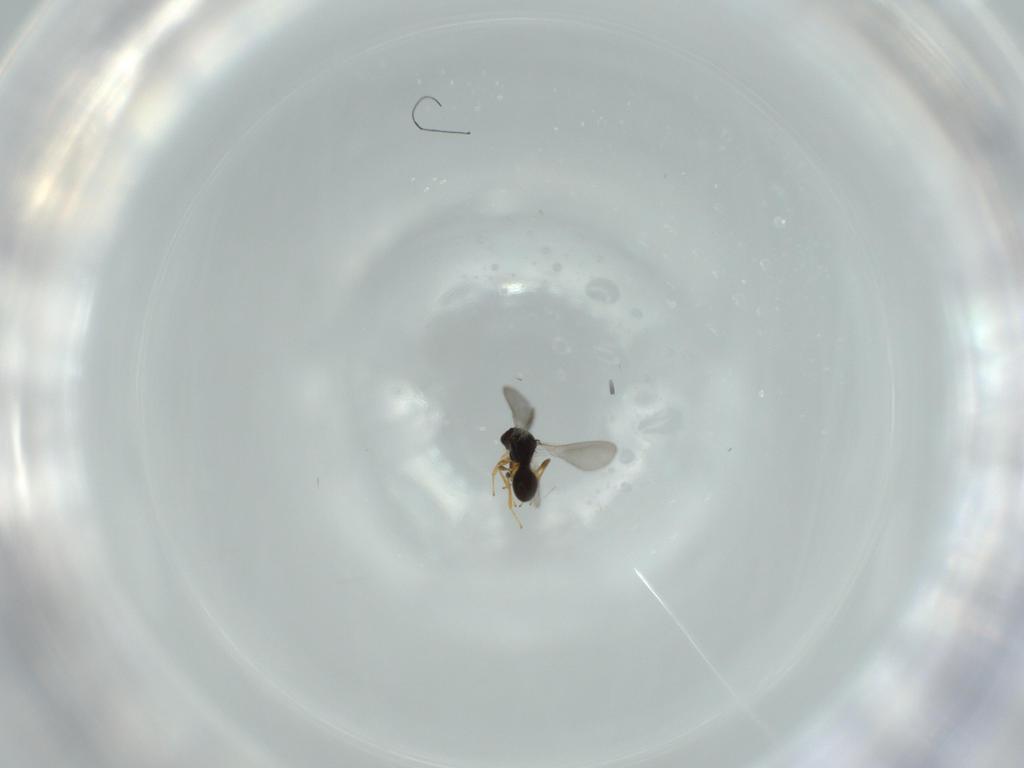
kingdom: Animalia
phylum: Arthropoda
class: Insecta
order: Hymenoptera
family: Platygastridae
